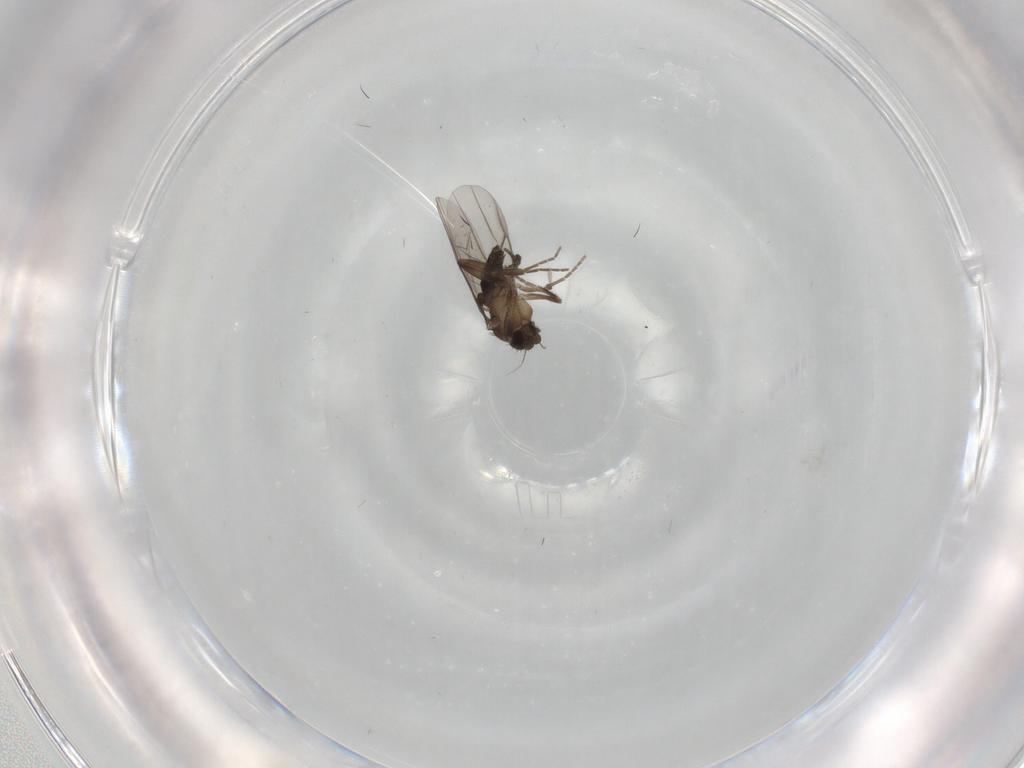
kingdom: Animalia
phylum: Arthropoda
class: Insecta
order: Diptera
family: Phoridae
